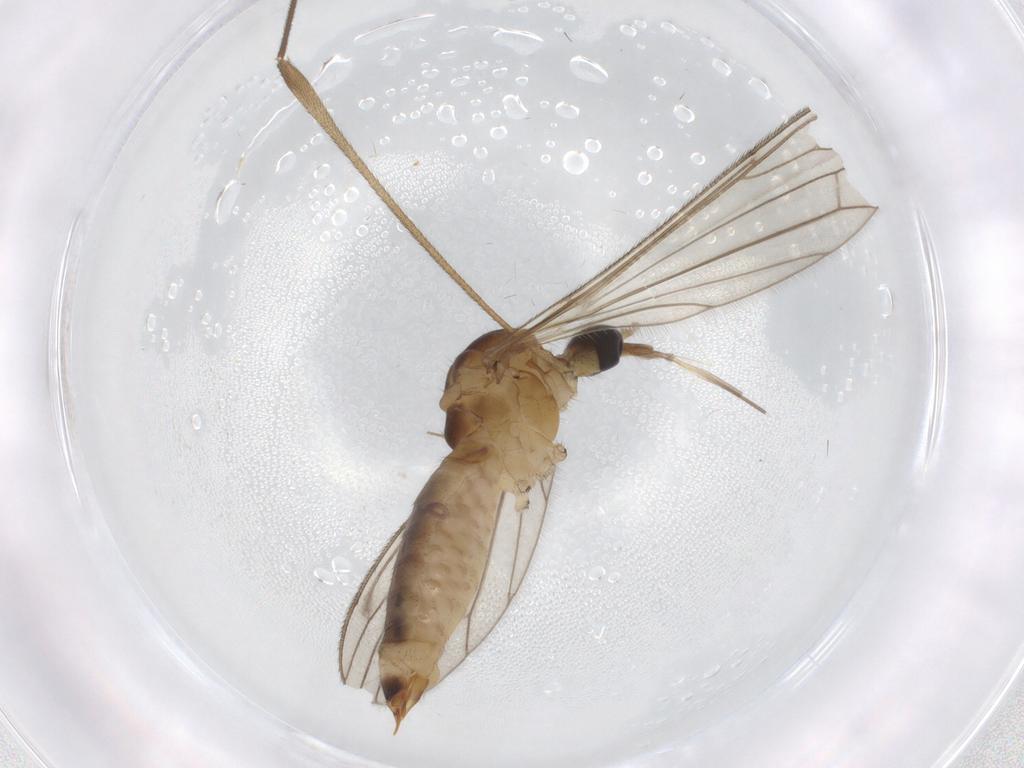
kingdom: Animalia
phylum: Arthropoda
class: Insecta
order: Diptera
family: Limoniidae
